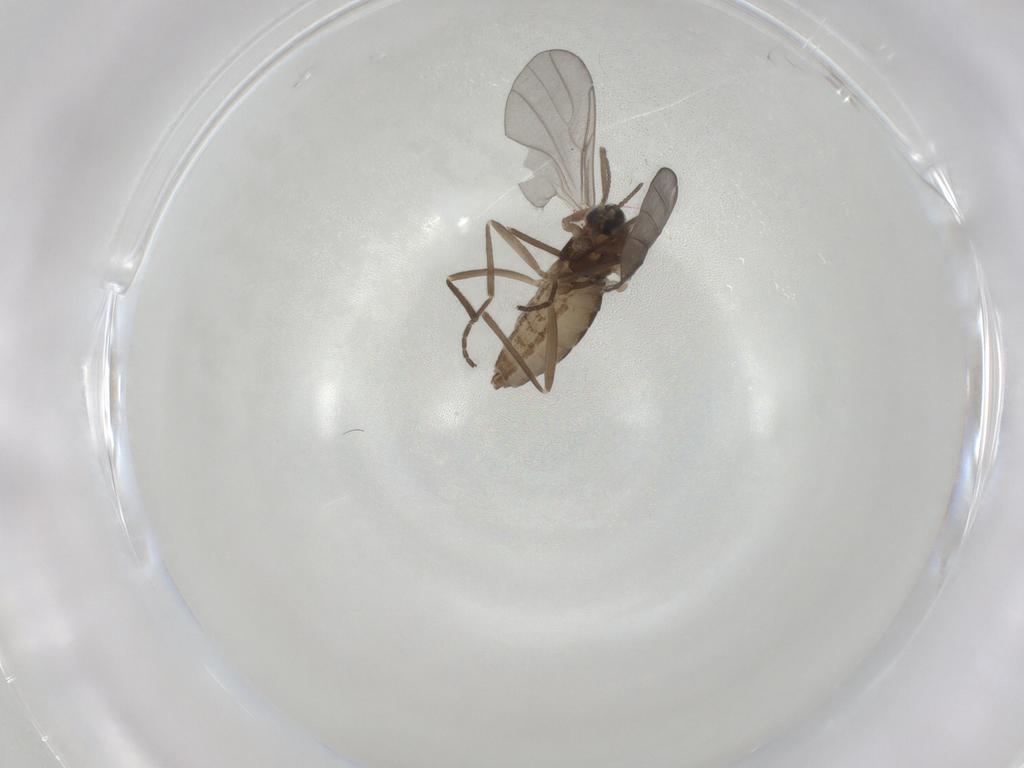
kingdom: Animalia
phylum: Arthropoda
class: Insecta
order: Diptera
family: Cecidomyiidae
